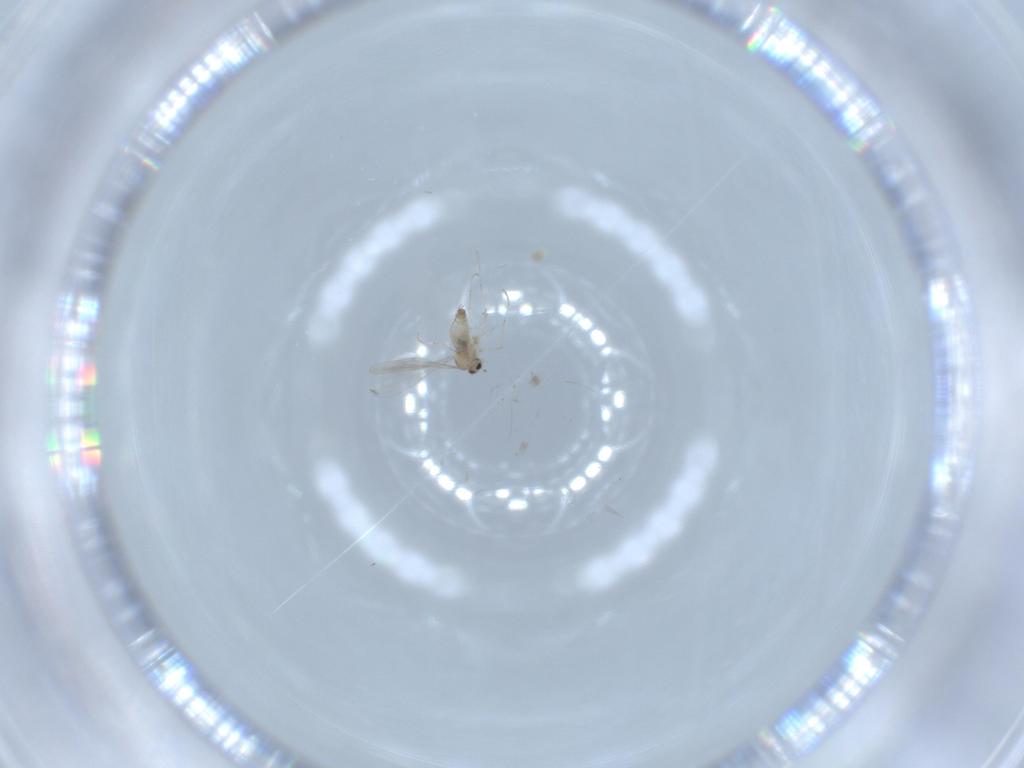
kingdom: Animalia
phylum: Arthropoda
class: Insecta
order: Diptera
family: Cecidomyiidae
